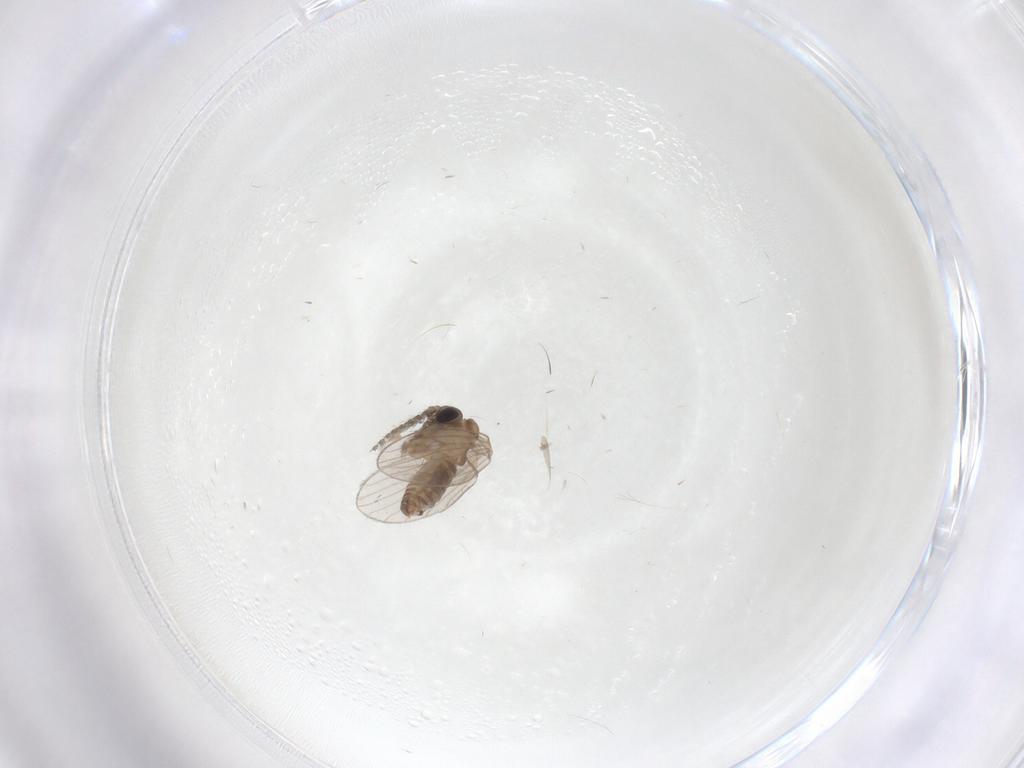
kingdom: Animalia
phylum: Arthropoda
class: Insecta
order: Diptera
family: Psychodidae
